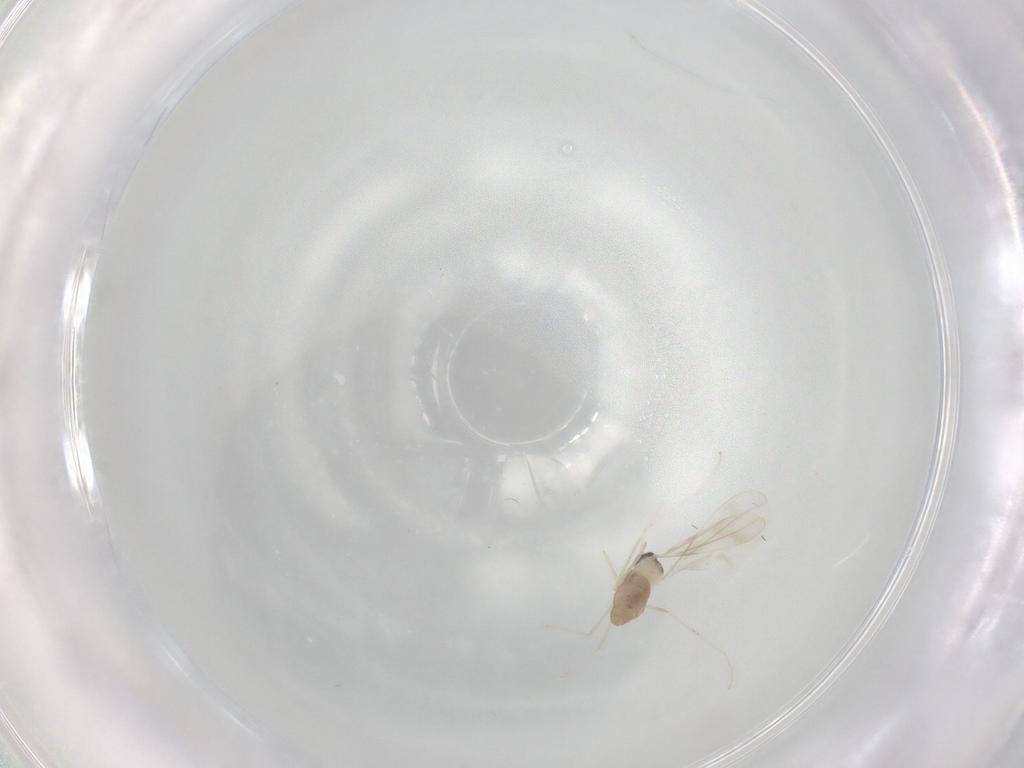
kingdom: Animalia
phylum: Arthropoda
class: Insecta
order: Diptera
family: Cecidomyiidae
